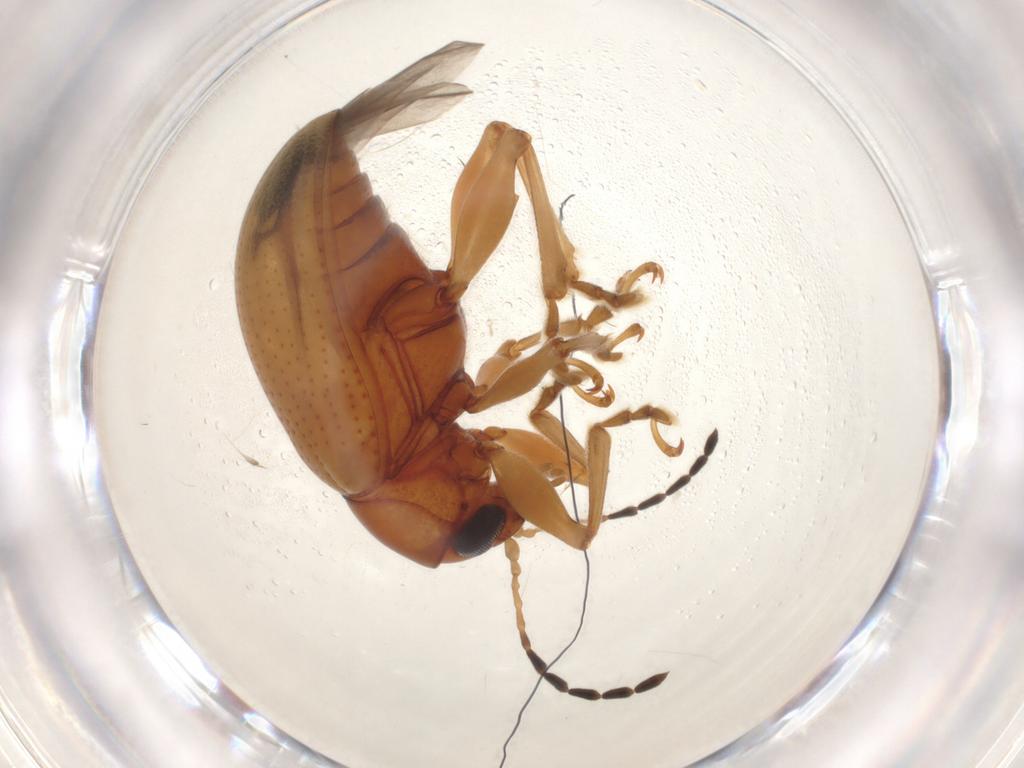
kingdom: Animalia
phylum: Arthropoda
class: Insecta
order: Coleoptera
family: Chrysomelidae
